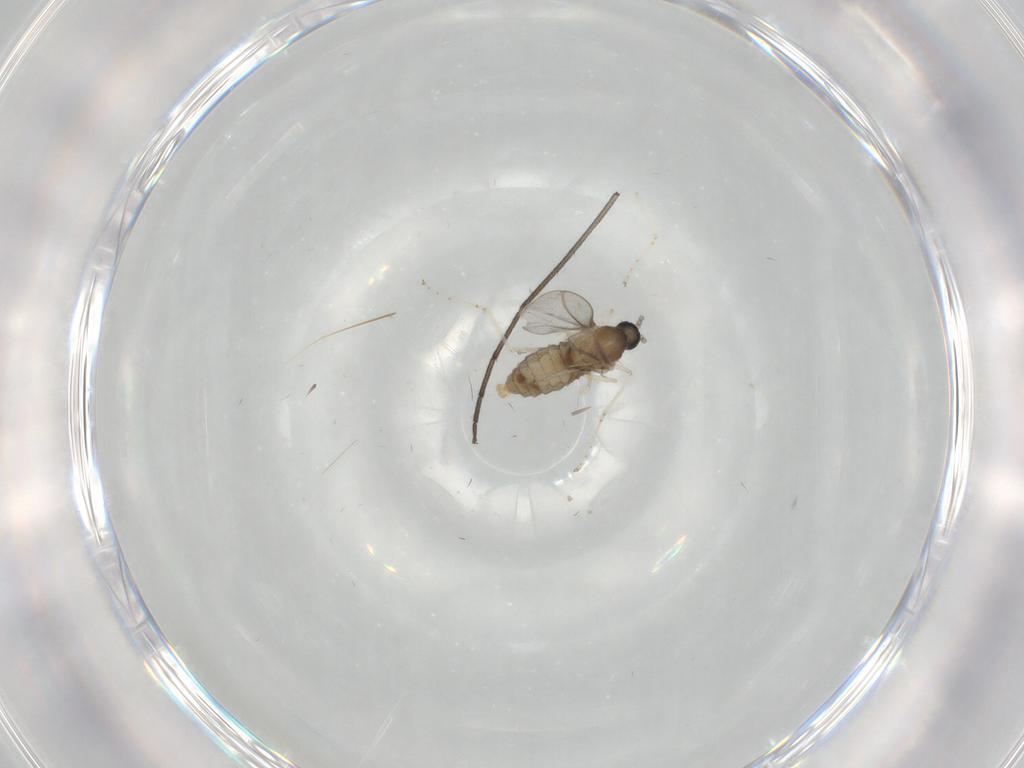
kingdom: Animalia
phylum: Arthropoda
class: Insecta
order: Diptera
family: Sciaridae
